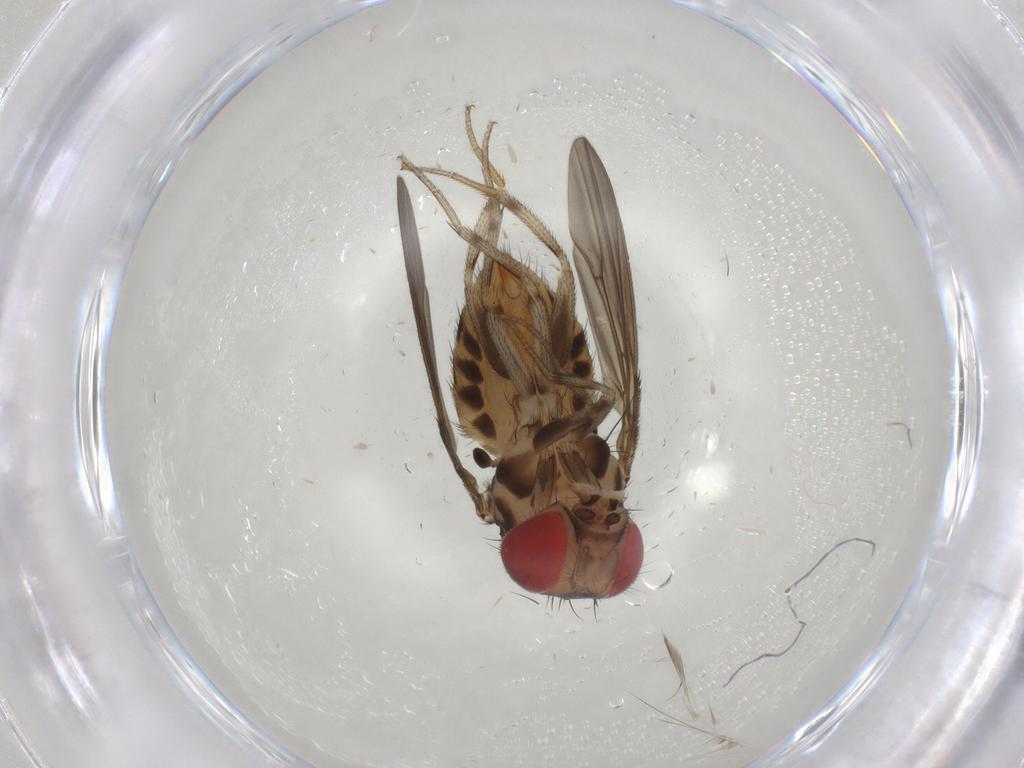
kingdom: Animalia
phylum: Arthropoda
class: Insecta
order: Diptera
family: Drosophilidae
